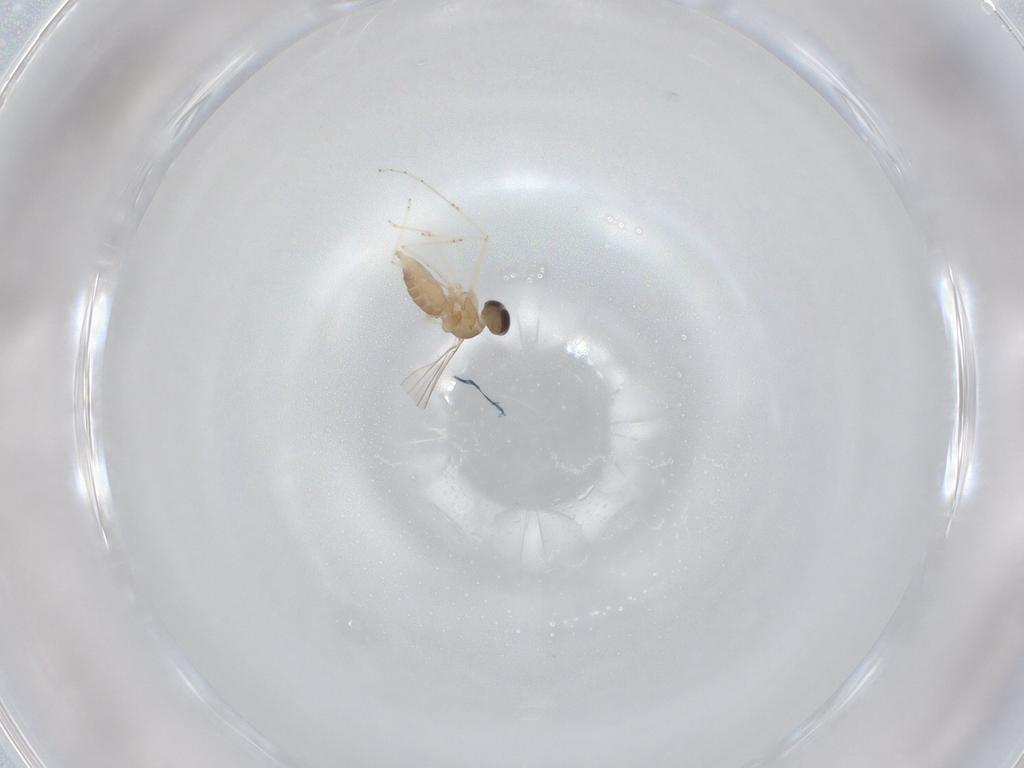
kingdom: Animalia
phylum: Arthropoda
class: Insecta
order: Diptera
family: Cecidomyiidae
